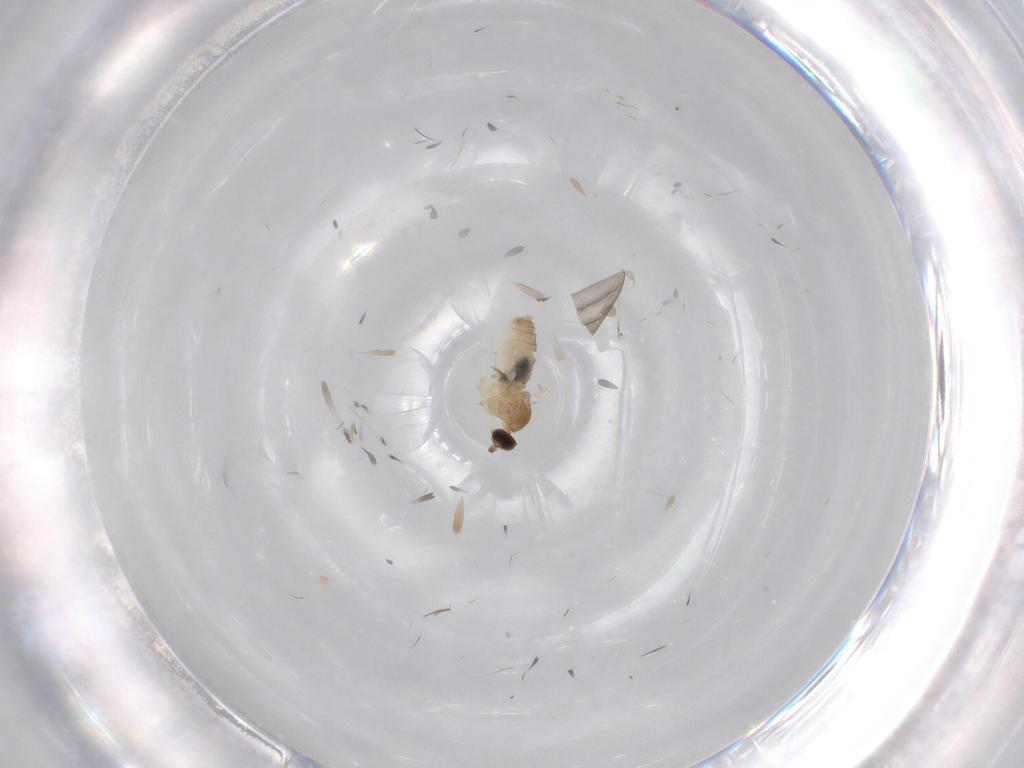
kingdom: Animalia
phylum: Arthropoda
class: Insecta
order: Diptera
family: Cecidomyiidae
